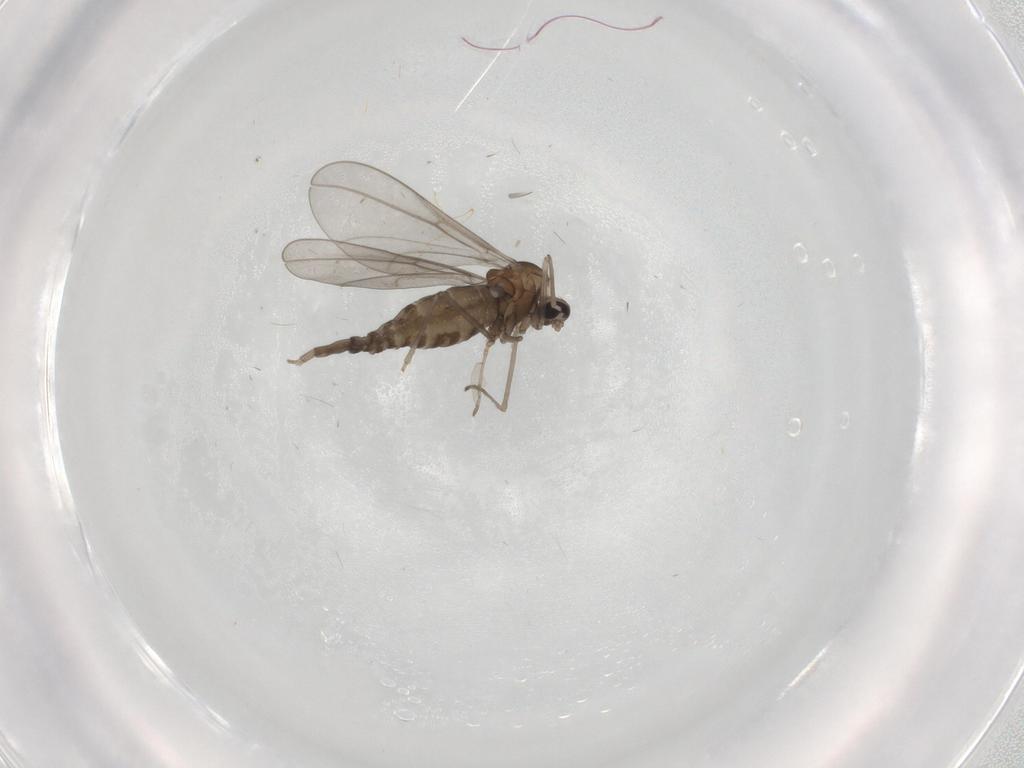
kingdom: Animalia
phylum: Arthropoda
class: Insecta
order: Diptera
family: Cecidomyiidae
